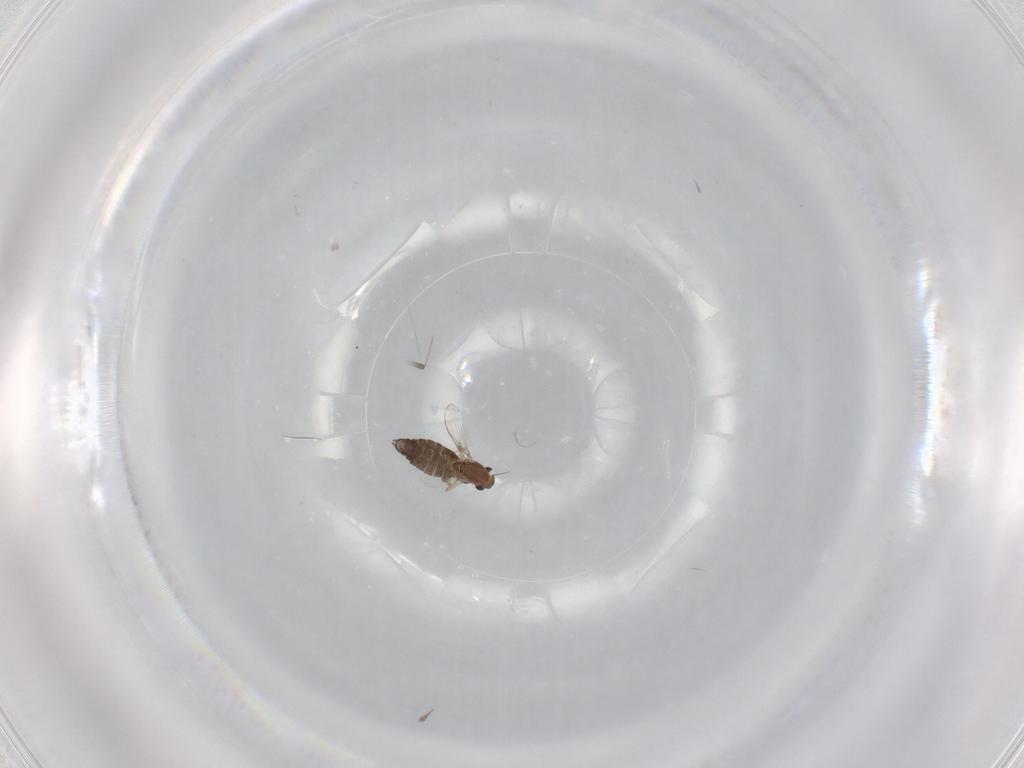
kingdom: Animalia
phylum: Arthropoda
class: Insecta
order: Diptera
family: Chironomidae
